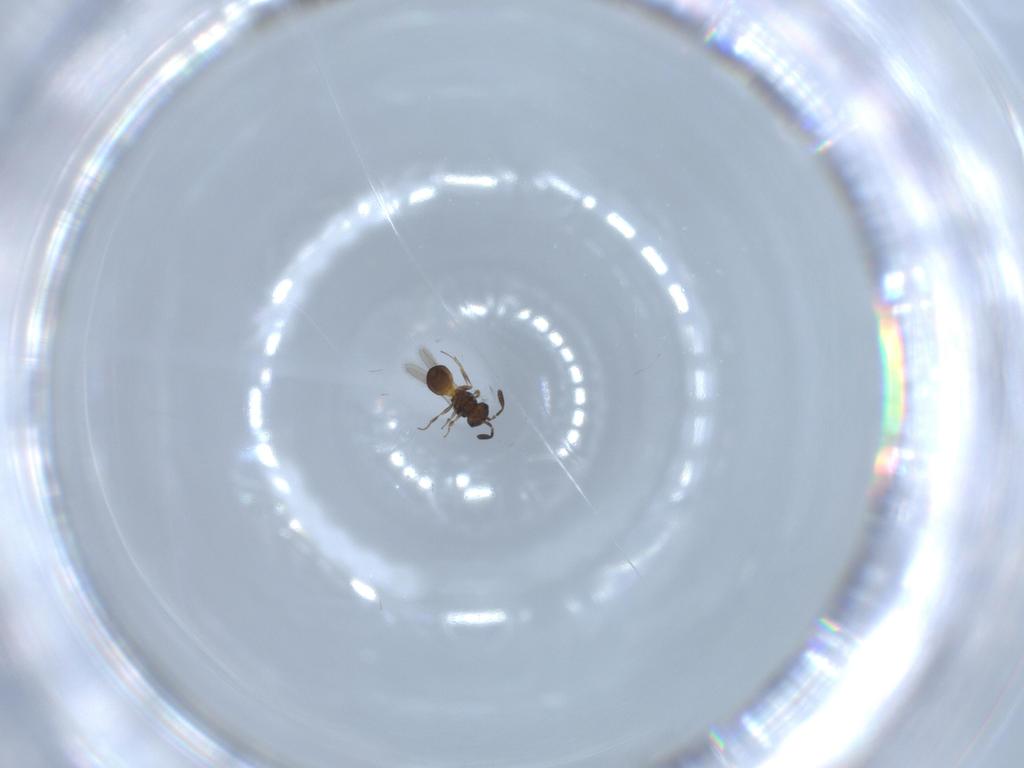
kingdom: Animalia
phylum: Arthropoda
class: Insecta
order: Hymenoptera
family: Scelionidae
